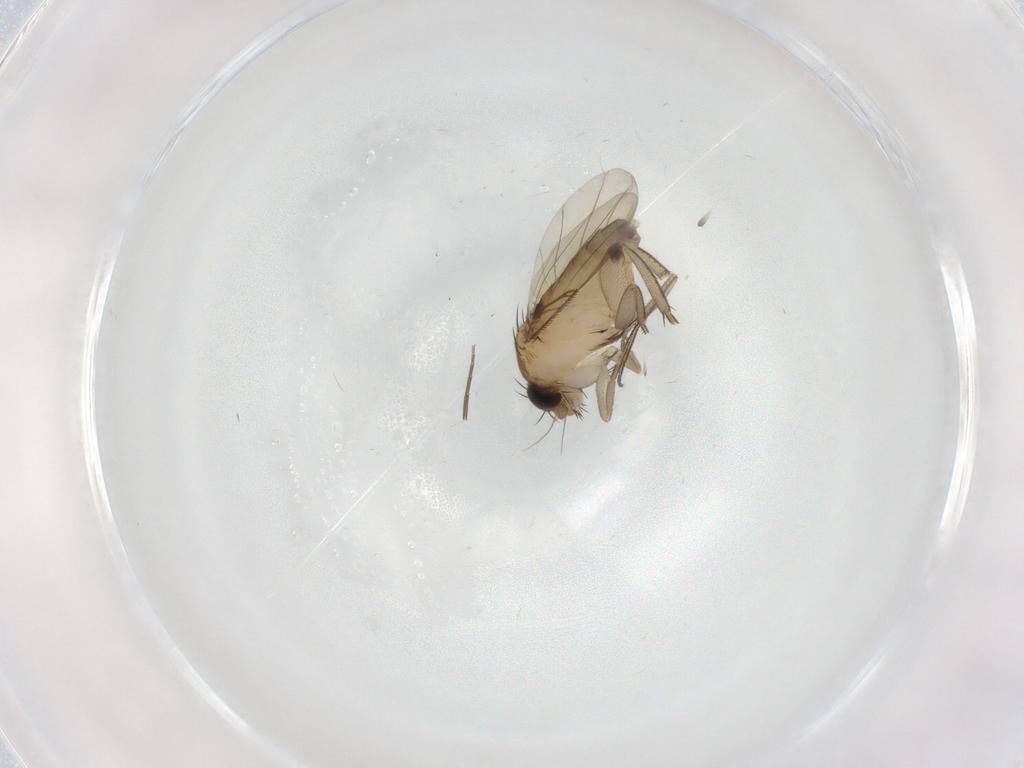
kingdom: Animalia
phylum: Arthropoda
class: Insecta
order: Diptera
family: Phoridae
